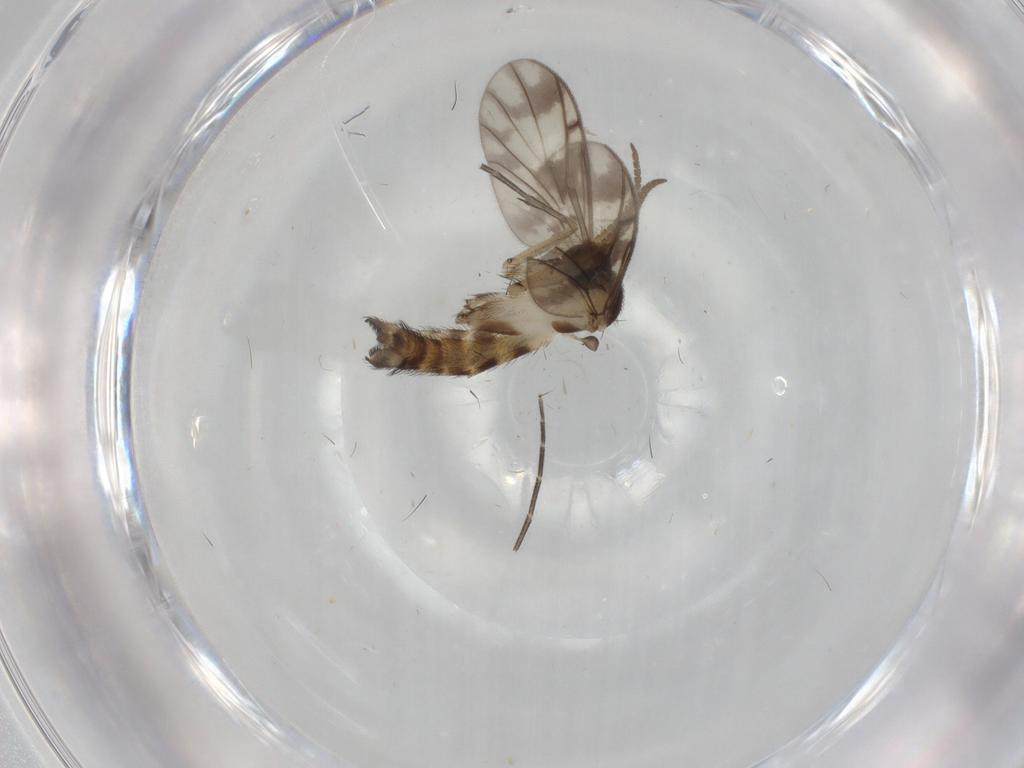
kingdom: Animalia
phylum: Arthropoda
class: Insecta
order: Diptera
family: Keroplatidae
